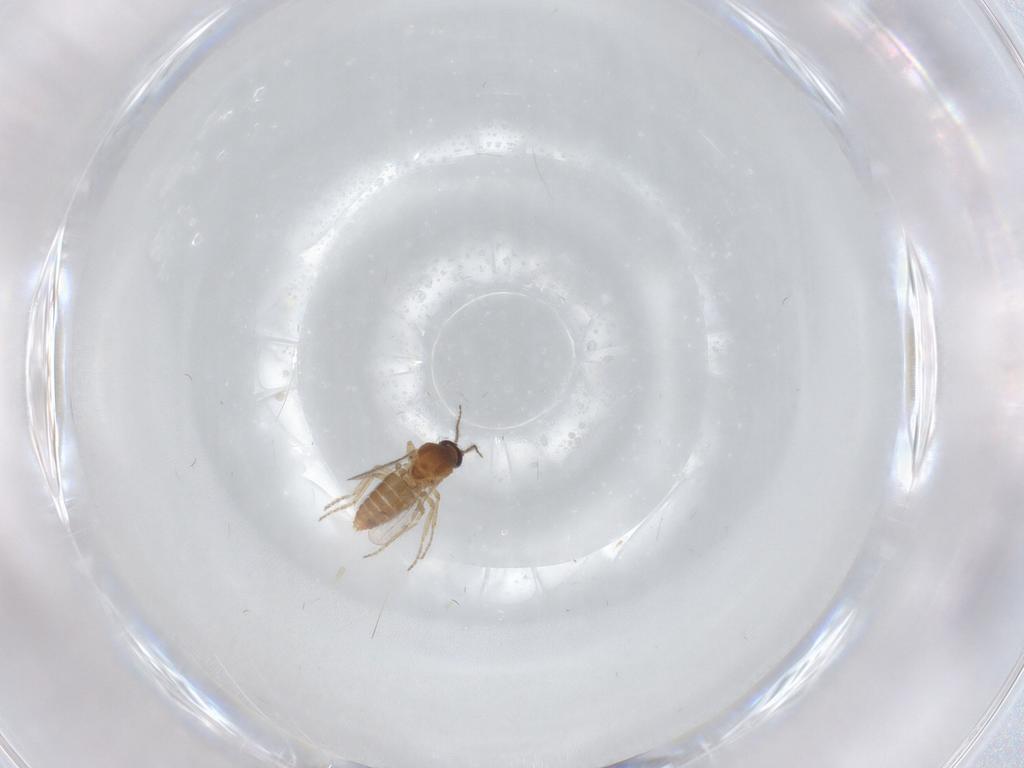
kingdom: Animalia
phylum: Arthropoda
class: Insecta
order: Diptera
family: Ceratopogonidae
